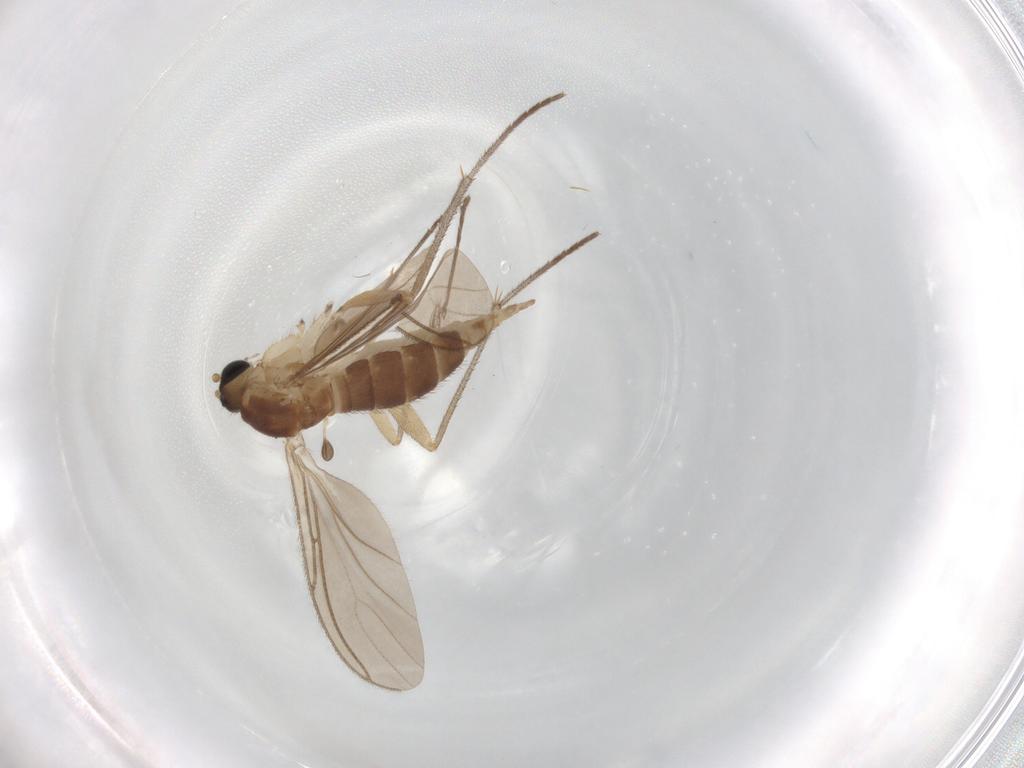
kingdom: Animalia
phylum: Arthropoda
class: Insecta
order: Diptera
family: Sciaridae
